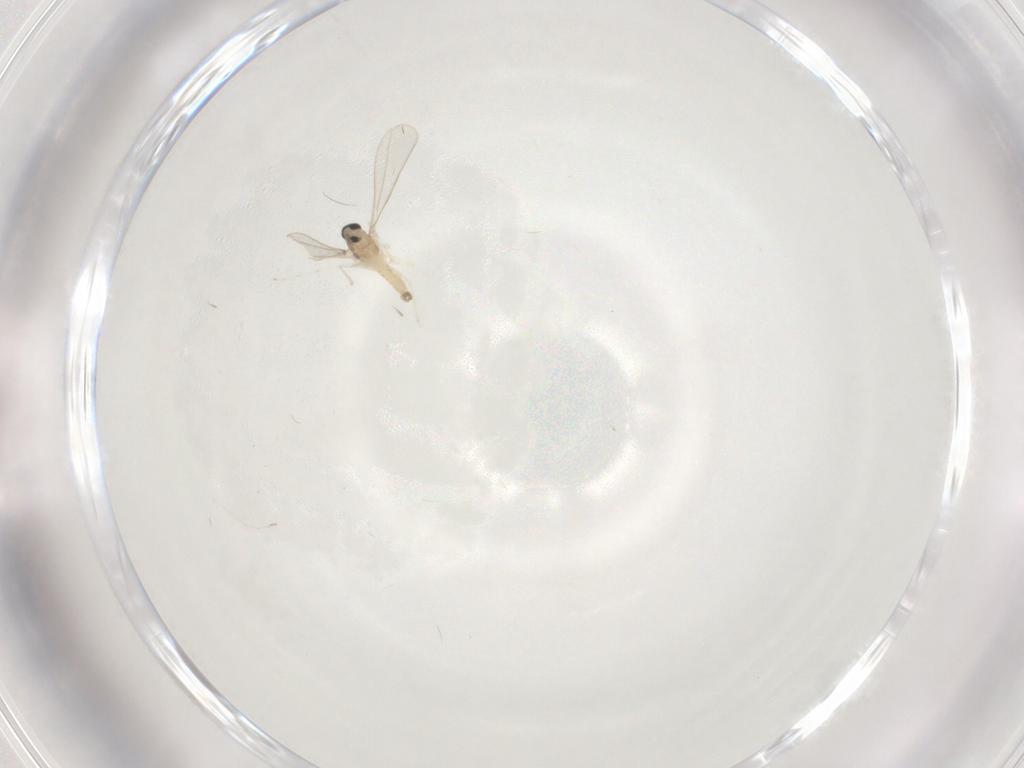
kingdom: Animalia
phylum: Arthropoda
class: Insecta
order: Diptera
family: Cecidomyiidae
